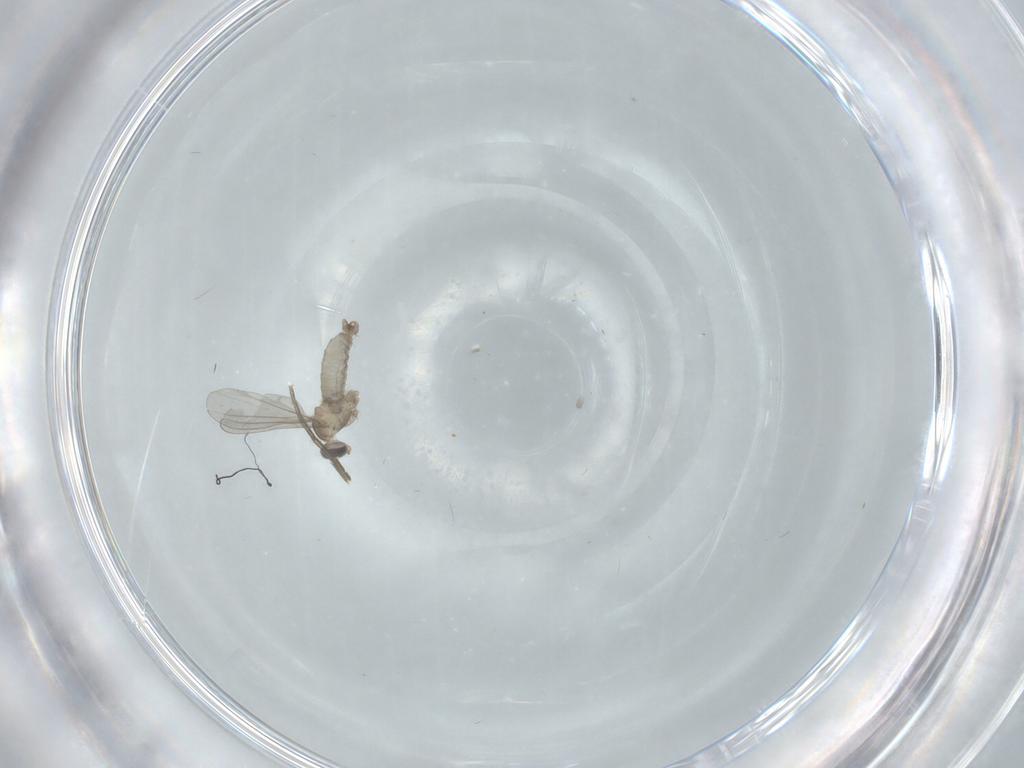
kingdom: Animalia
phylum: Arthropoda
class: Insecta
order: Diptera
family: Cecidomyiidae
